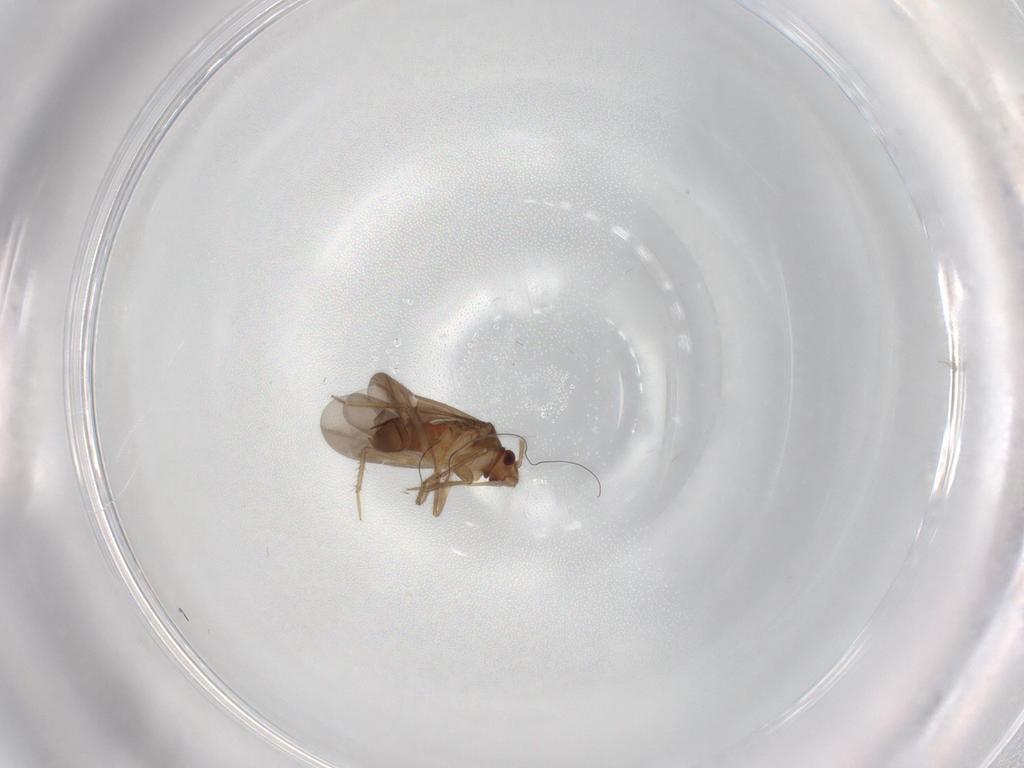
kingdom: Animalia
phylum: Arthropoda
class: Insecta
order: Hemiptera
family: Ceratocombidae
